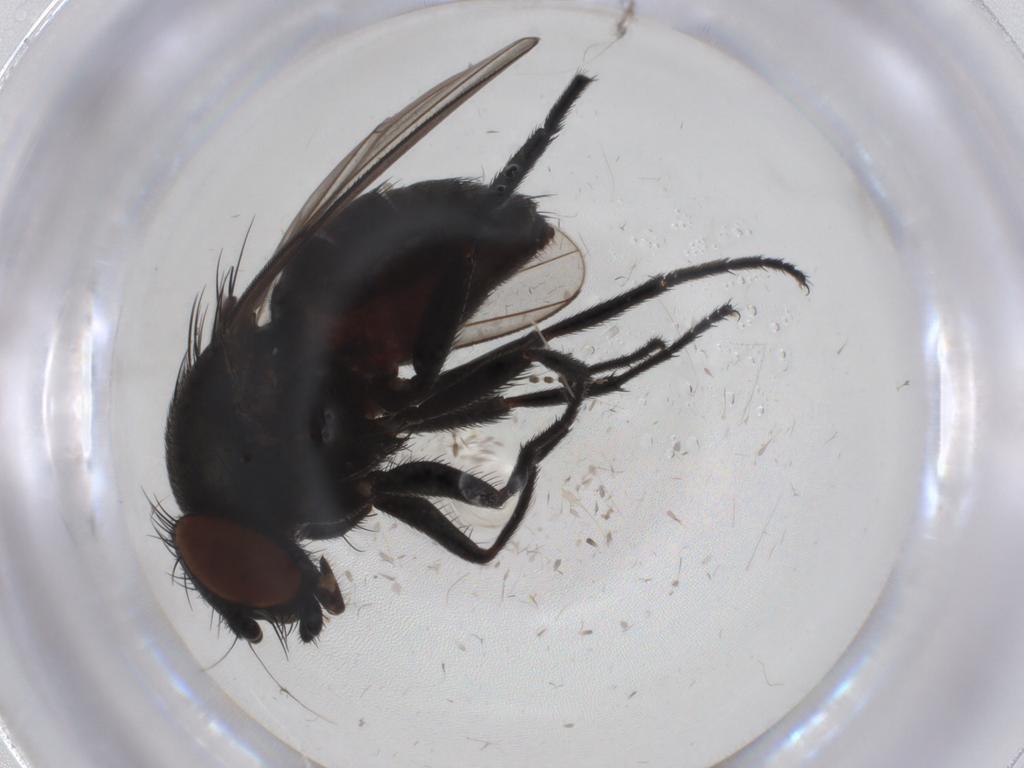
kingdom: Animalia
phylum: Arthropoda
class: Insecta
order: Diptera
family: Milichiidae
